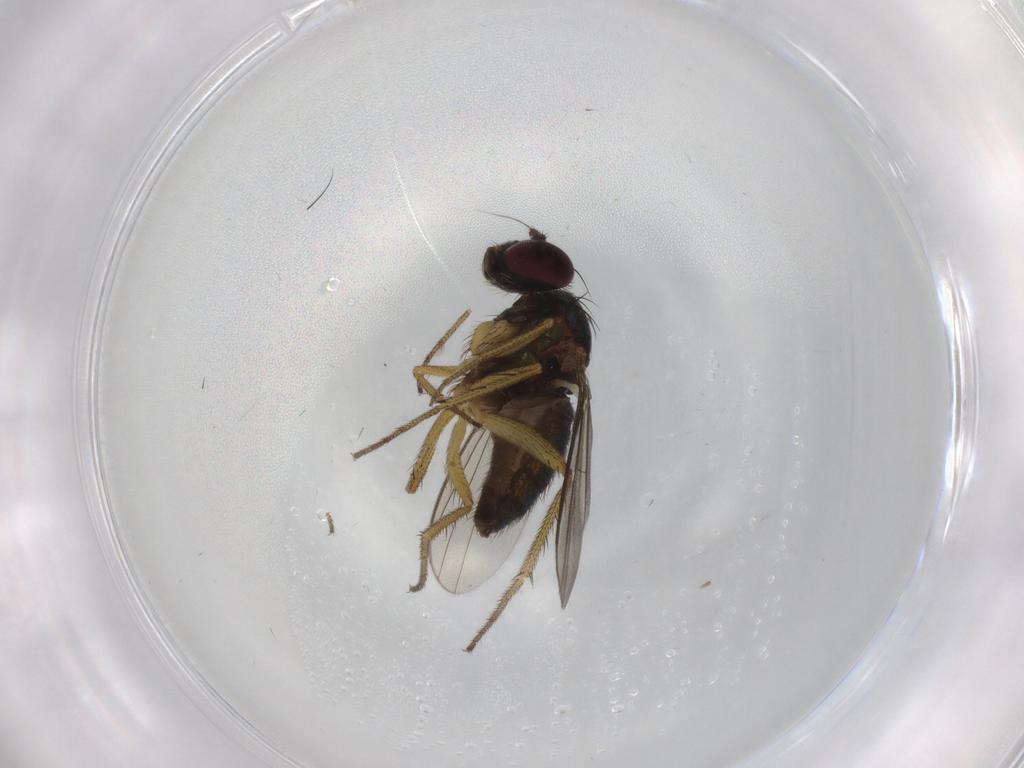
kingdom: Animalia
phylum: Arthropoda
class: Insecta
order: Diptera
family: Dolichopodidae
